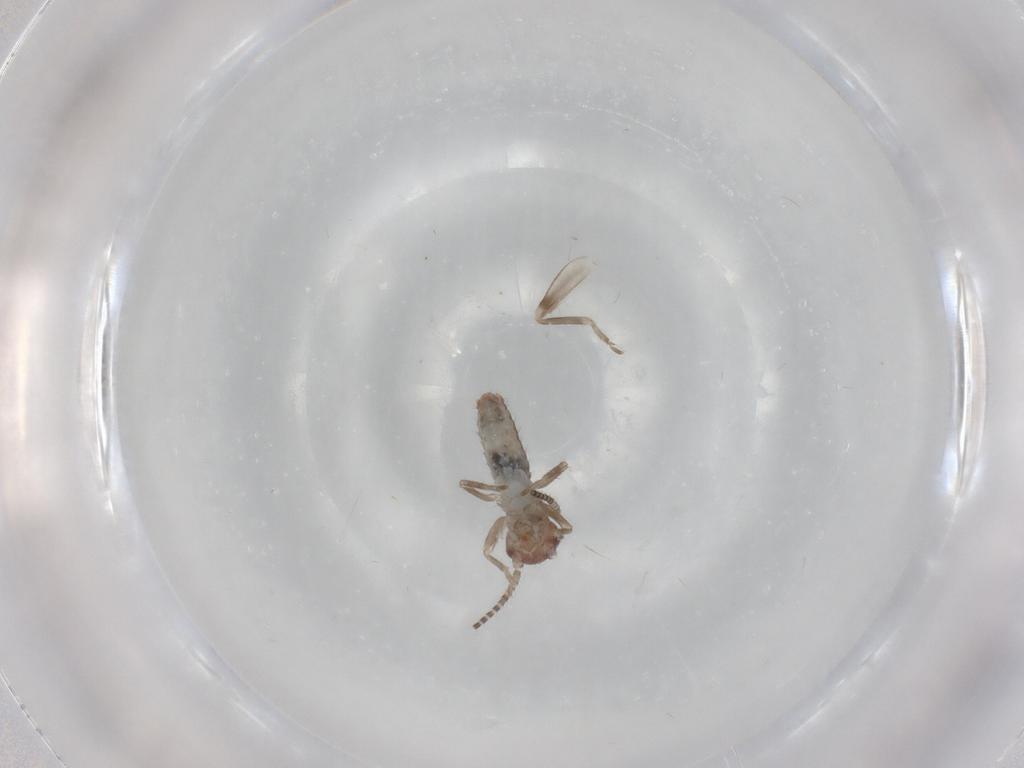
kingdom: Animalia
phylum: Arthropoda
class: Insecta
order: Orthoptera
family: Mogoplistidae
